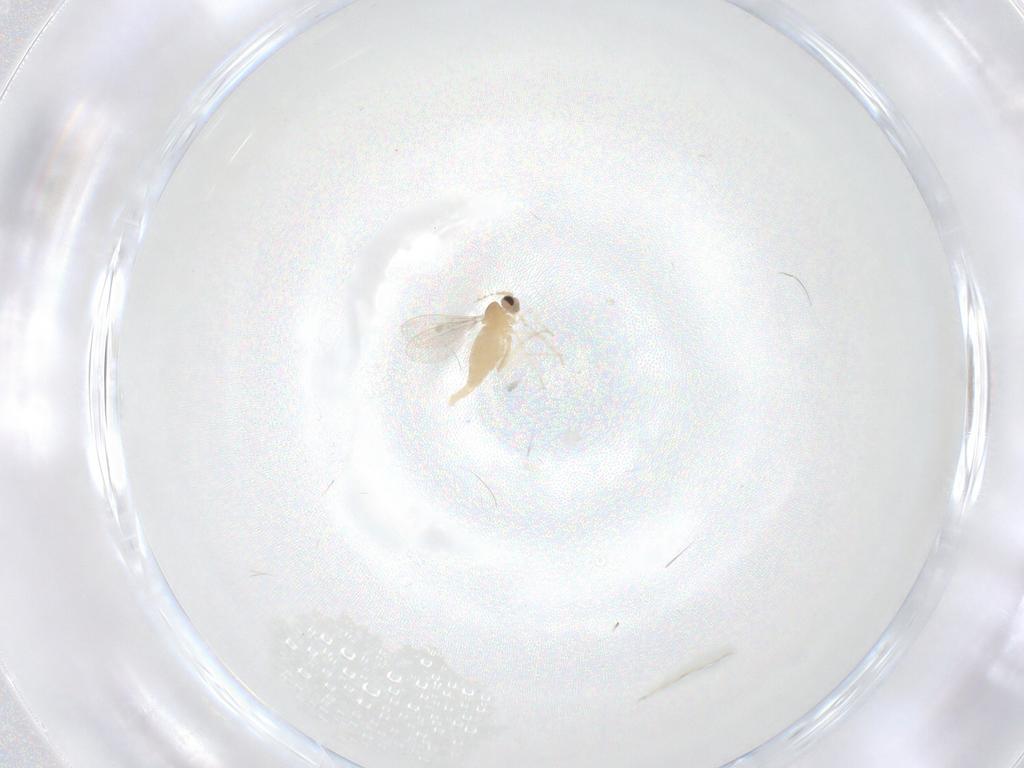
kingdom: Animalia
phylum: Arthropoda
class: Insecta
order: Diptera
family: Cecidomyiidae
